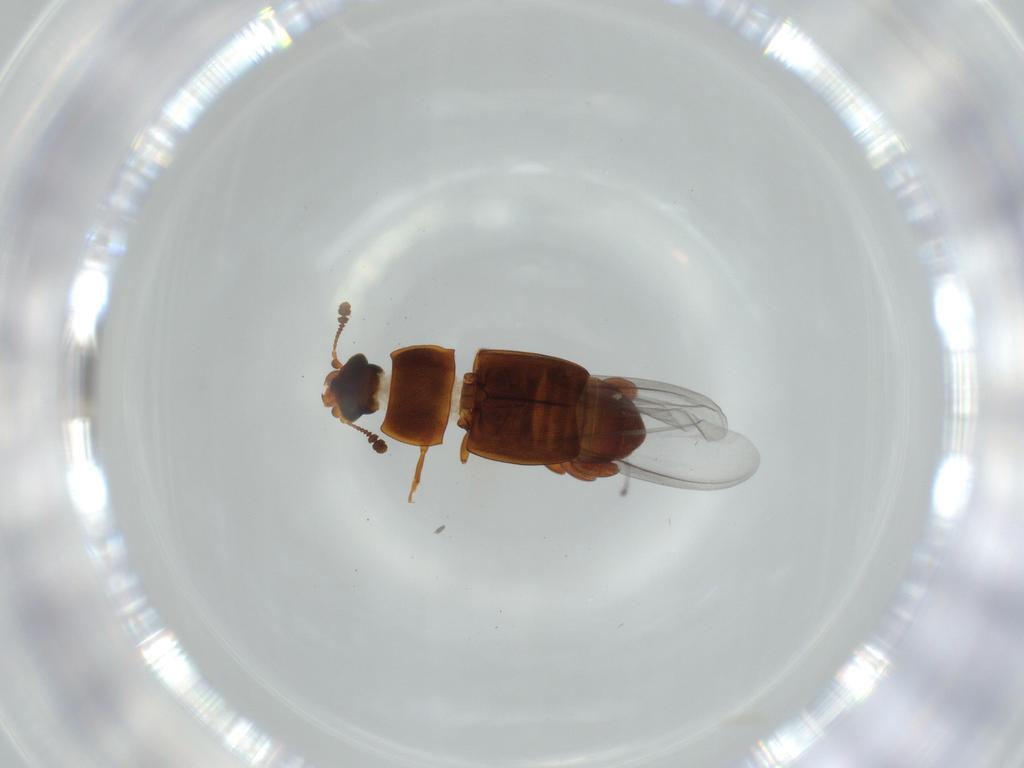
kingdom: Animalia
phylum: Arthropoda
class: Insecta
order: Coleoptera
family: Nitidulidae
